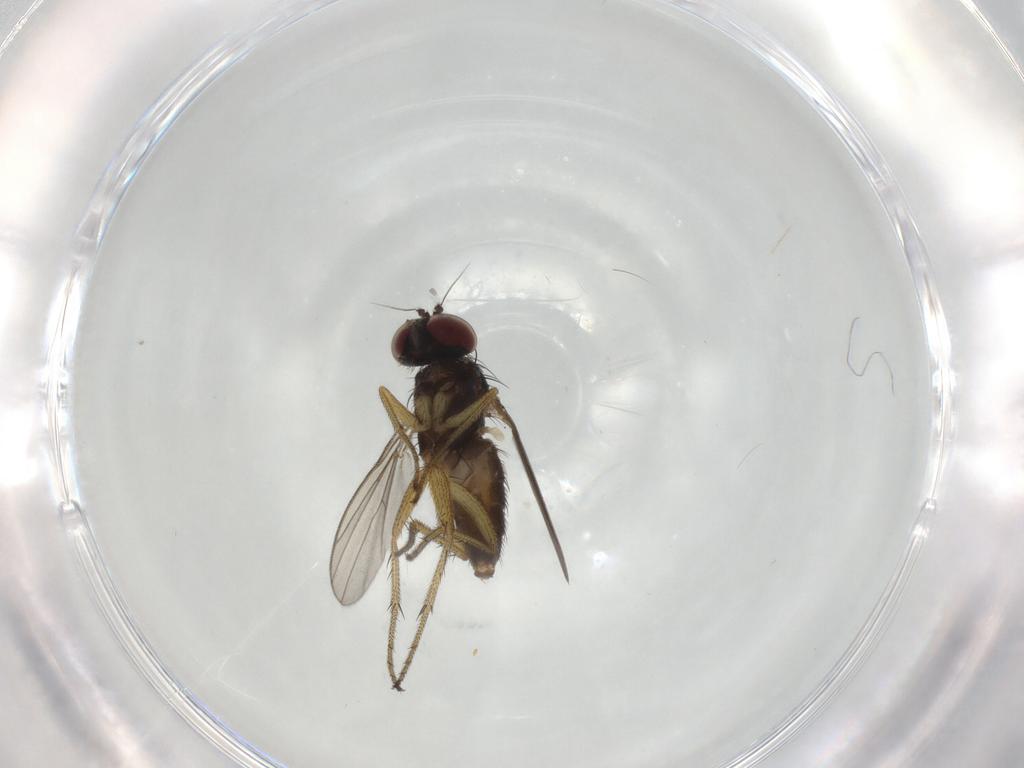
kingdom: Animalia
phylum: Arthropoda
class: Insecta
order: Diptera
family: Dolichopodidae
